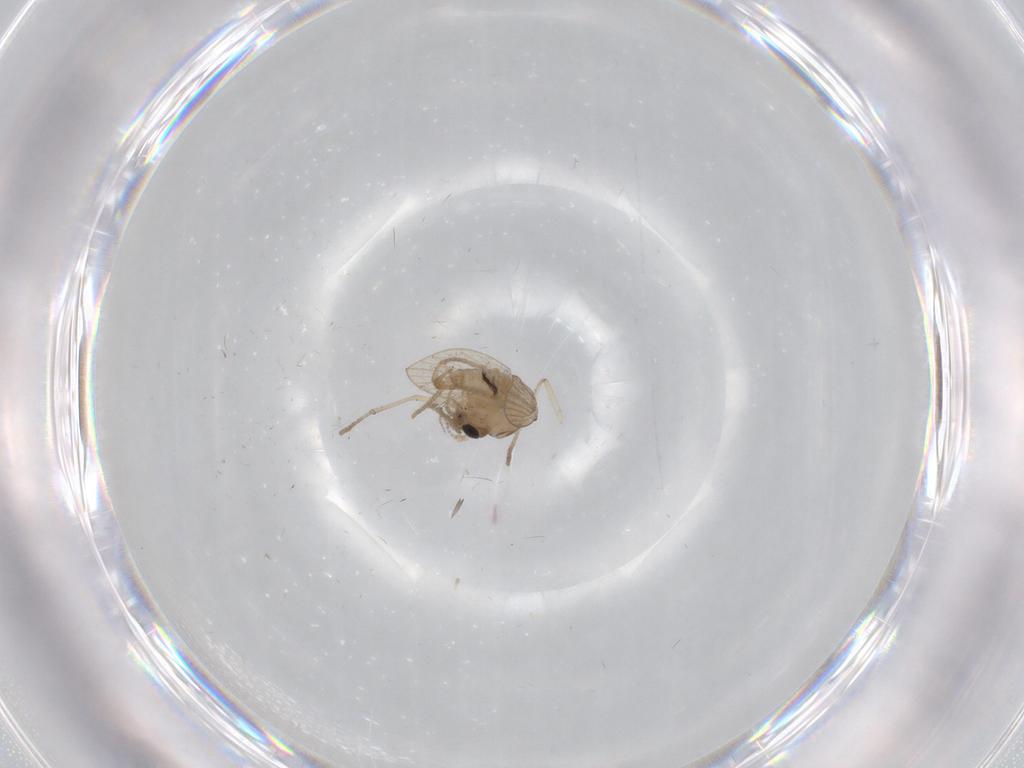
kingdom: Animalia
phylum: Arthropoda
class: Insecta
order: Diptera
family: Psychodidae
